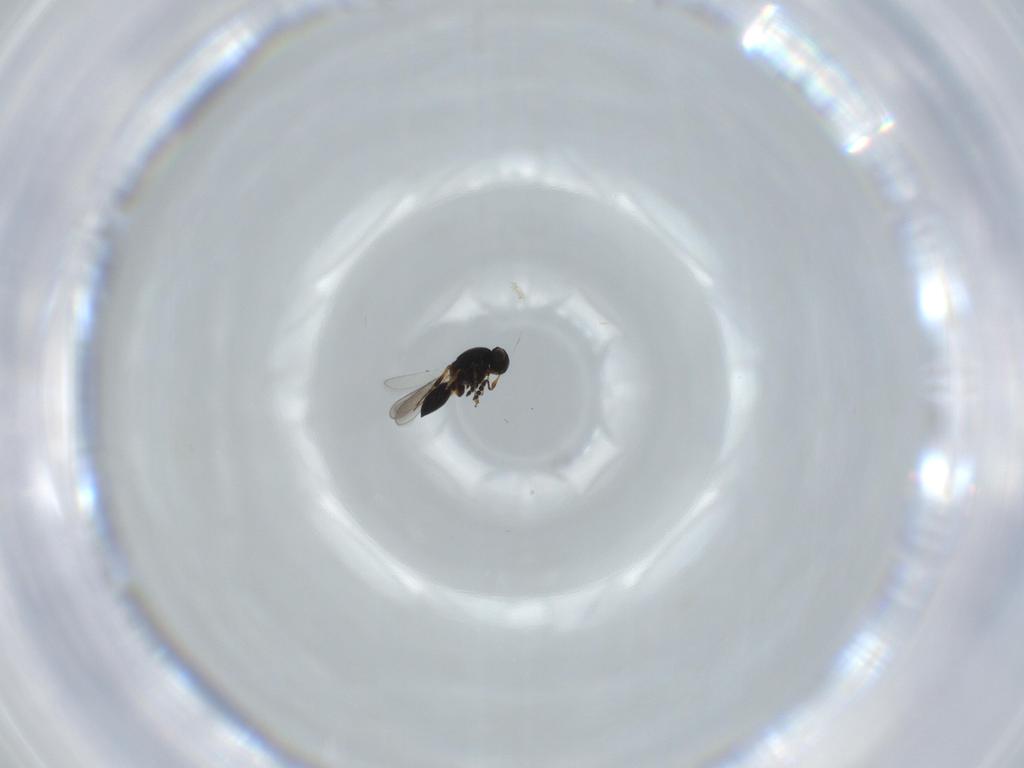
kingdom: Animalia
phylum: Arthropoda
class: Insecta
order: Hymenoptera
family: Platygastridae
